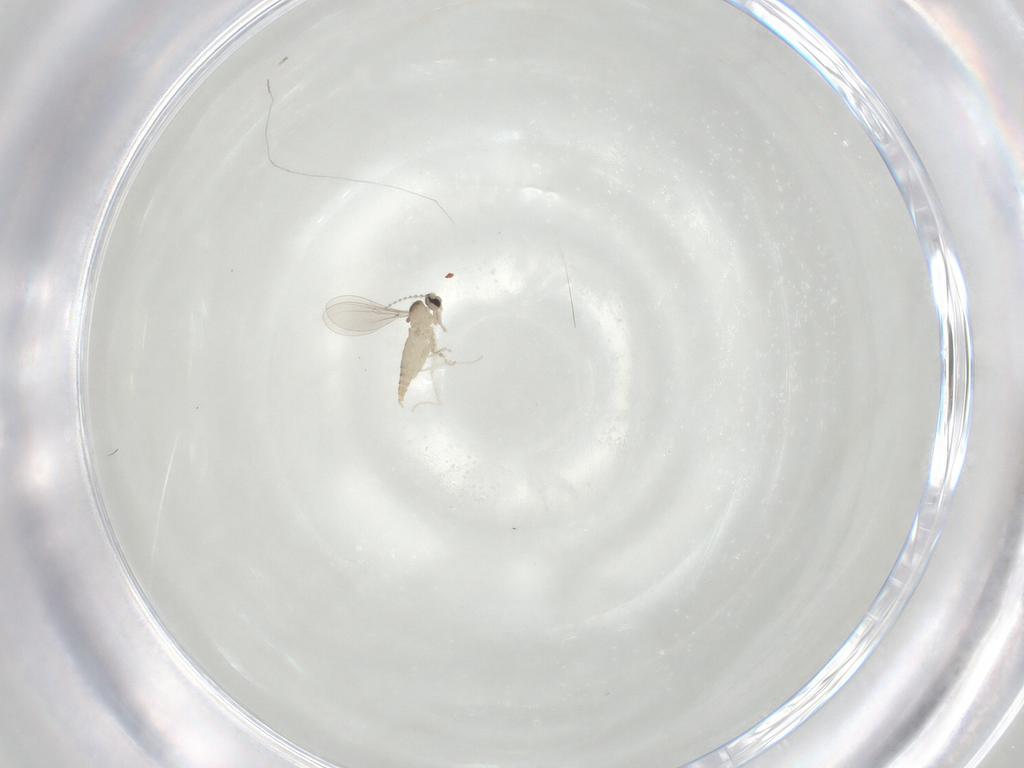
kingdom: Animalia
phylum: Arthropoda
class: Insecta
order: Diptera
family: Cecidomyiidae
